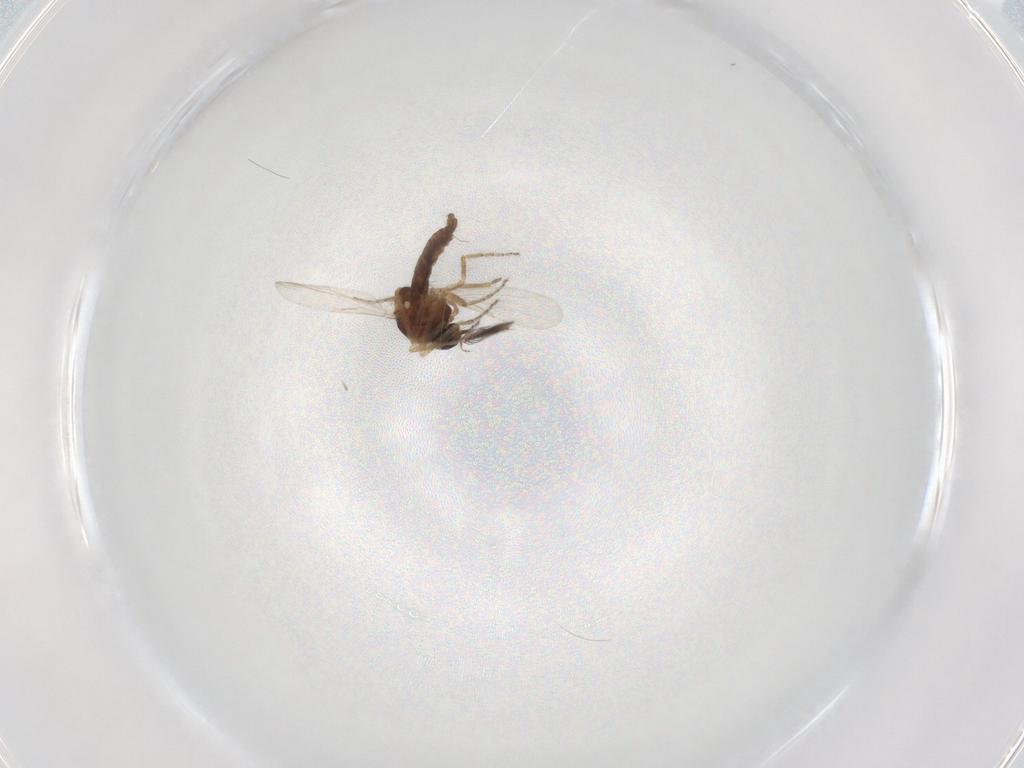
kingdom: Animalia
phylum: Arthropoda
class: Insecta
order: Diptera
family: Ceratopogonidae
